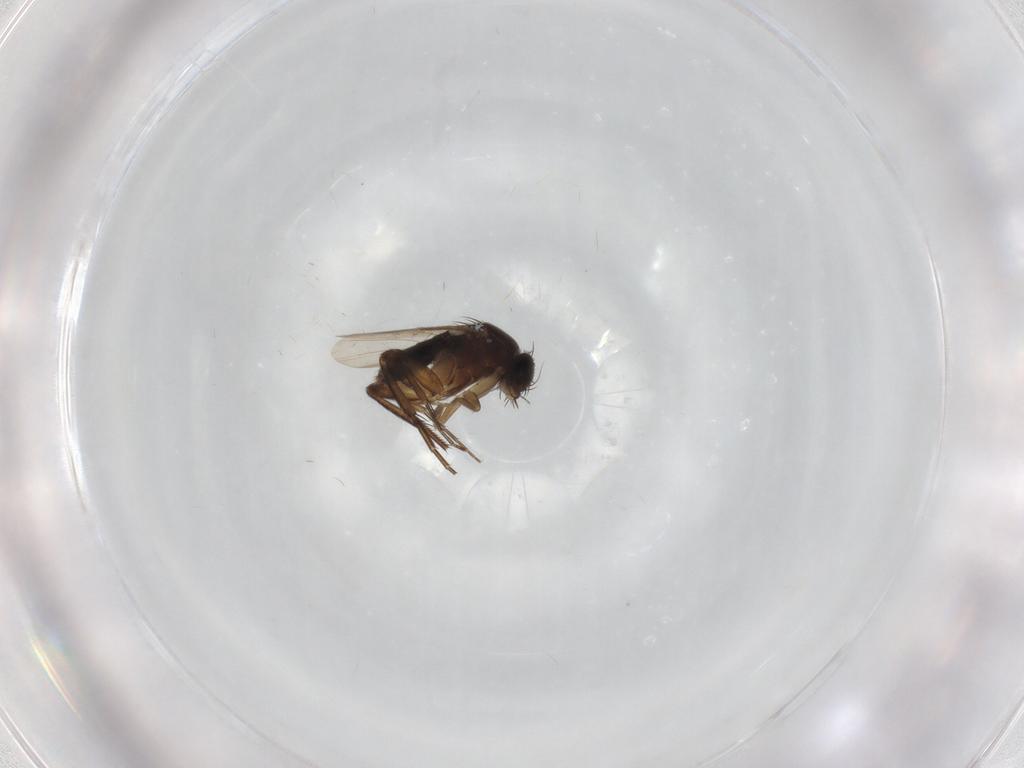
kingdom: Animalia
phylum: Arthropoda
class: Insecta
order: Diptera
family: Phoridae
